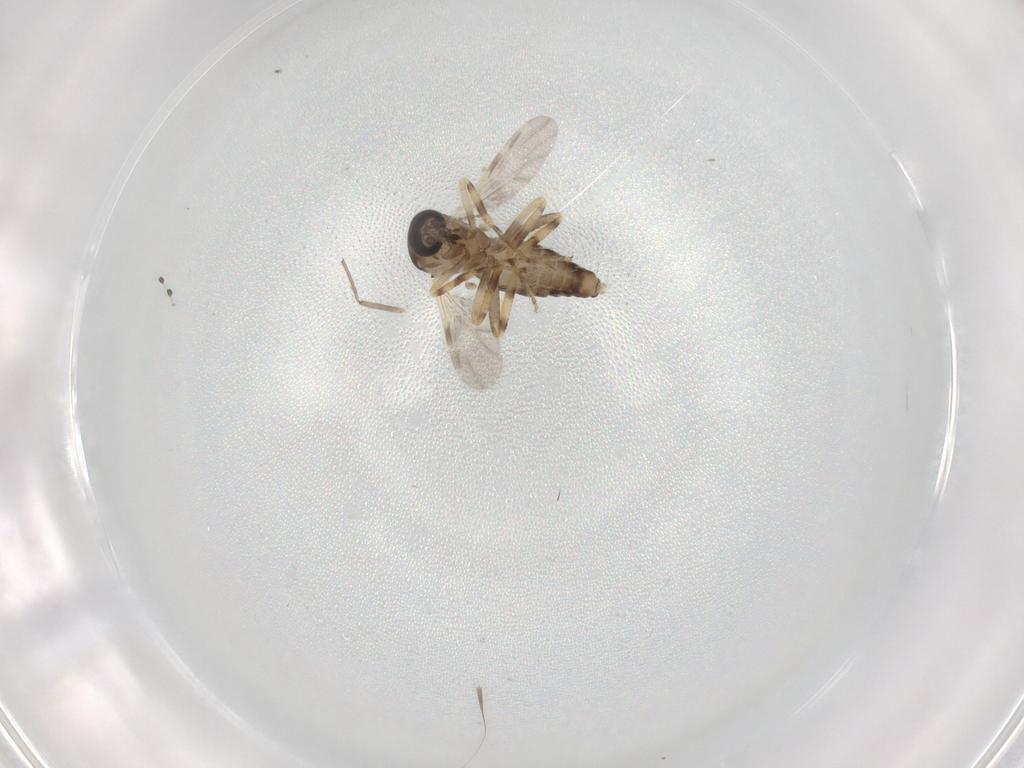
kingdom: Animalia
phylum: Arthropoda
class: Insecta
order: Diptera
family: Ceratopogonidae
